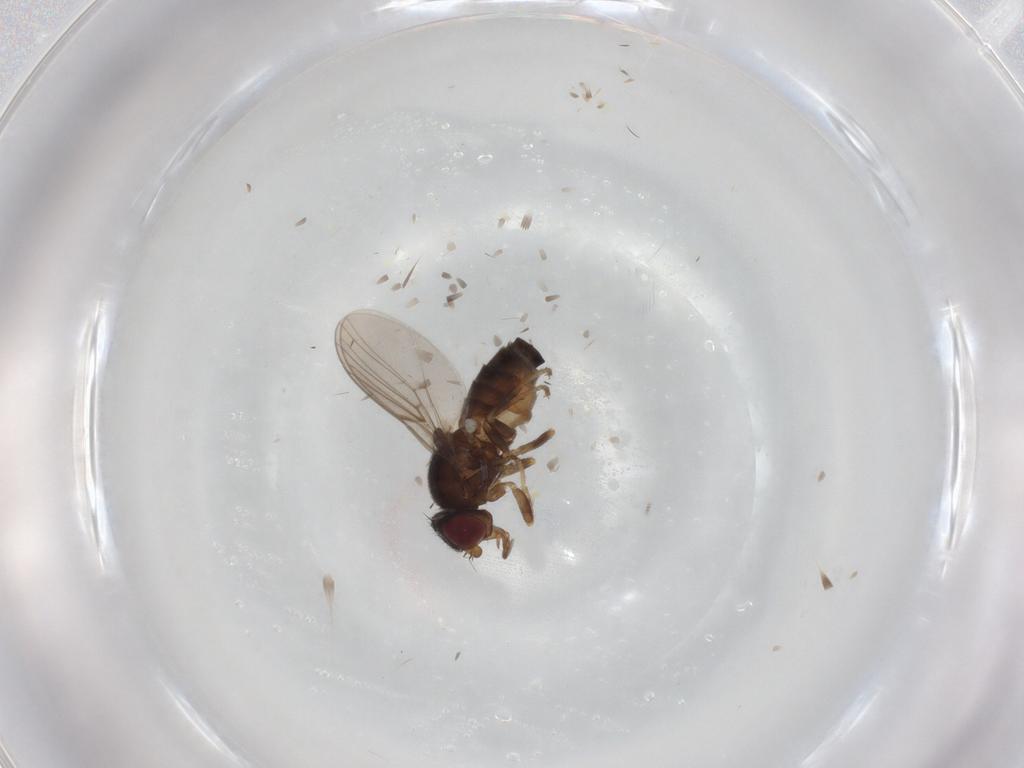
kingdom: Animalia
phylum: Arthropoda
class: Insecta
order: Diptera
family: Chloropidae
